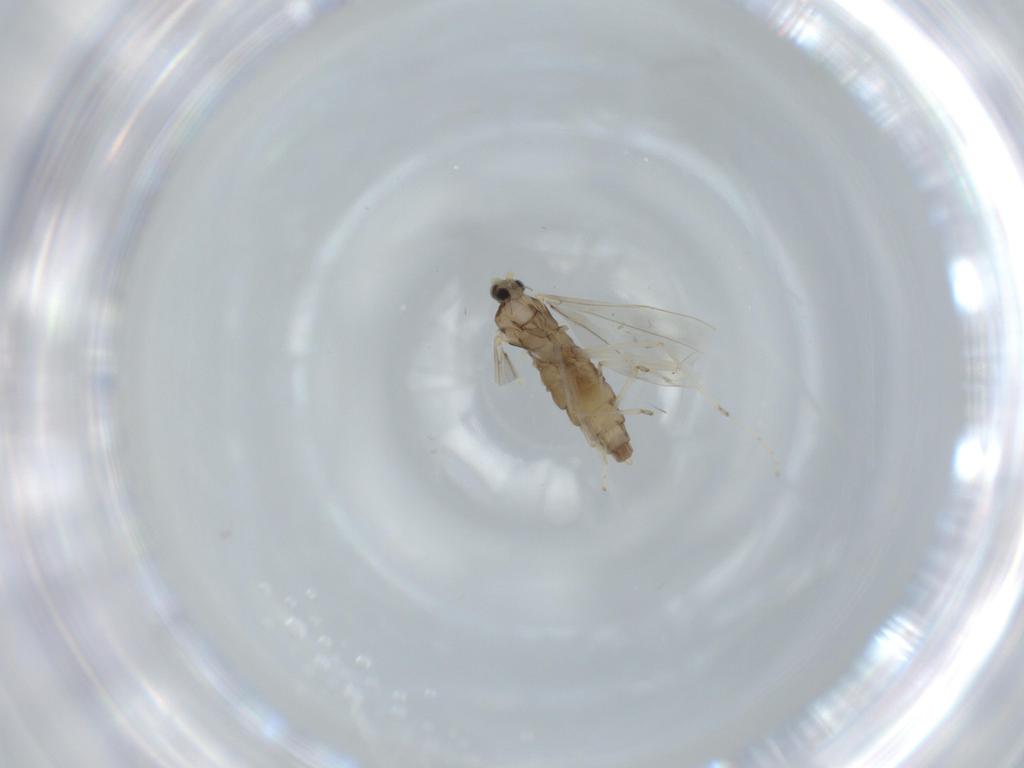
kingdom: Animalia
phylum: Arthropoda
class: Insecta
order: Diptera
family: Cecidomyiidae
